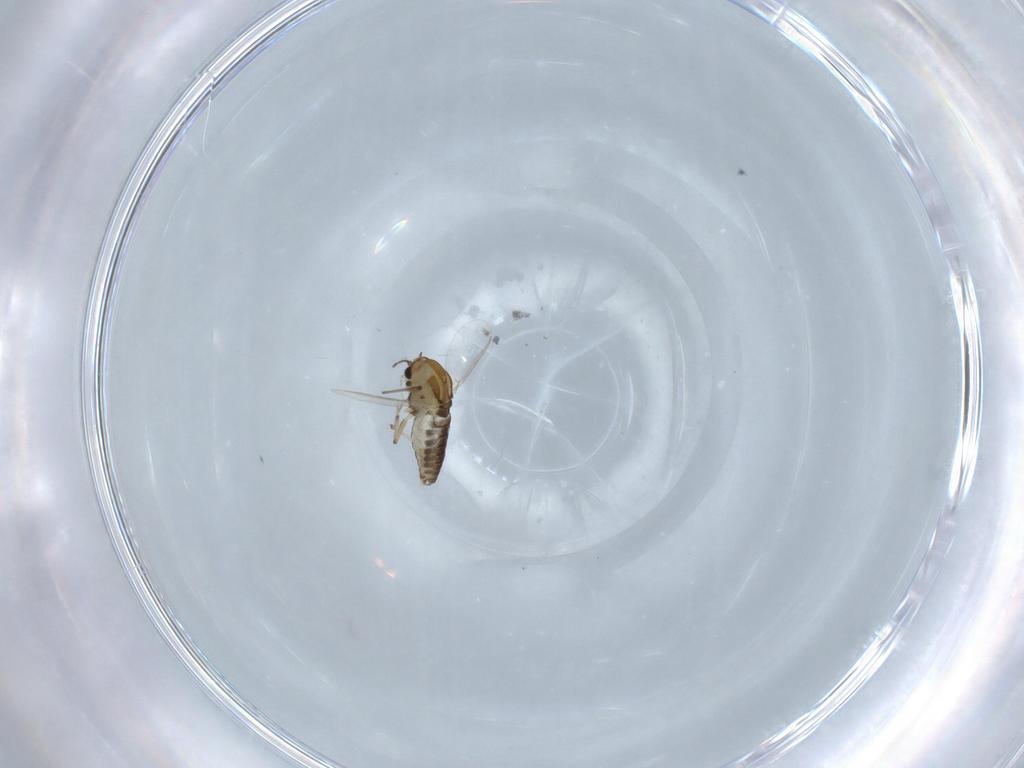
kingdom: Animalia
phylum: Arthropoda
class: Insecta
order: Diptera
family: Chironomidae
